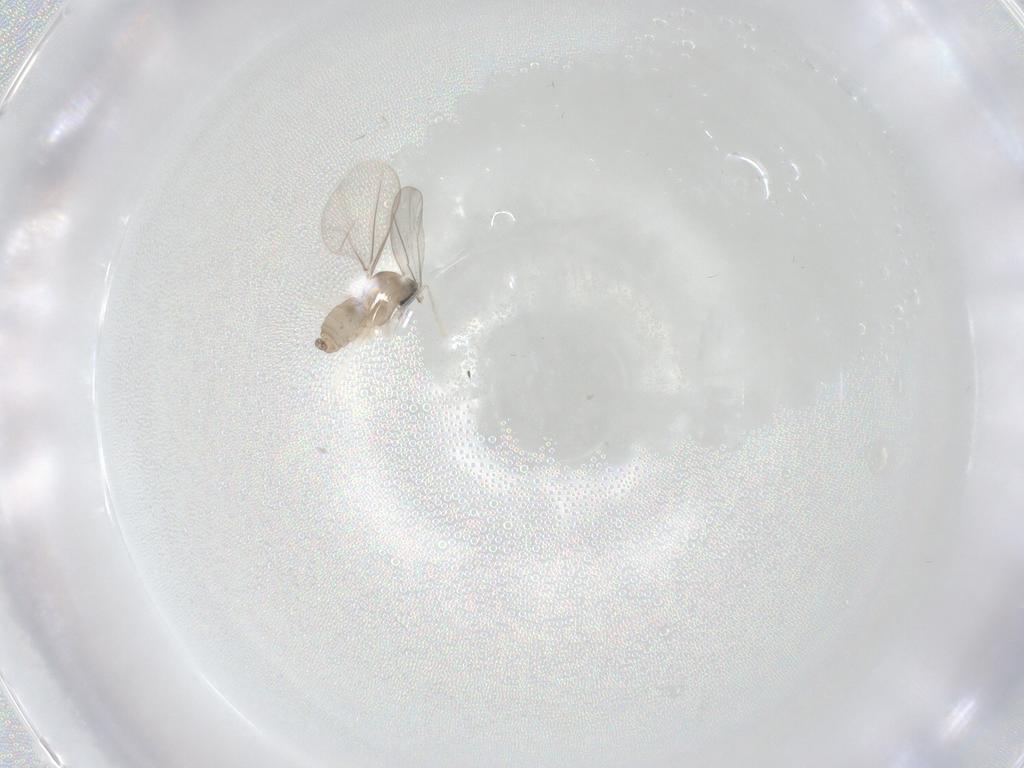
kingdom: Animalia
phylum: Arthropoda
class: Insecta
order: Diptera
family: Cecidomyiidae
